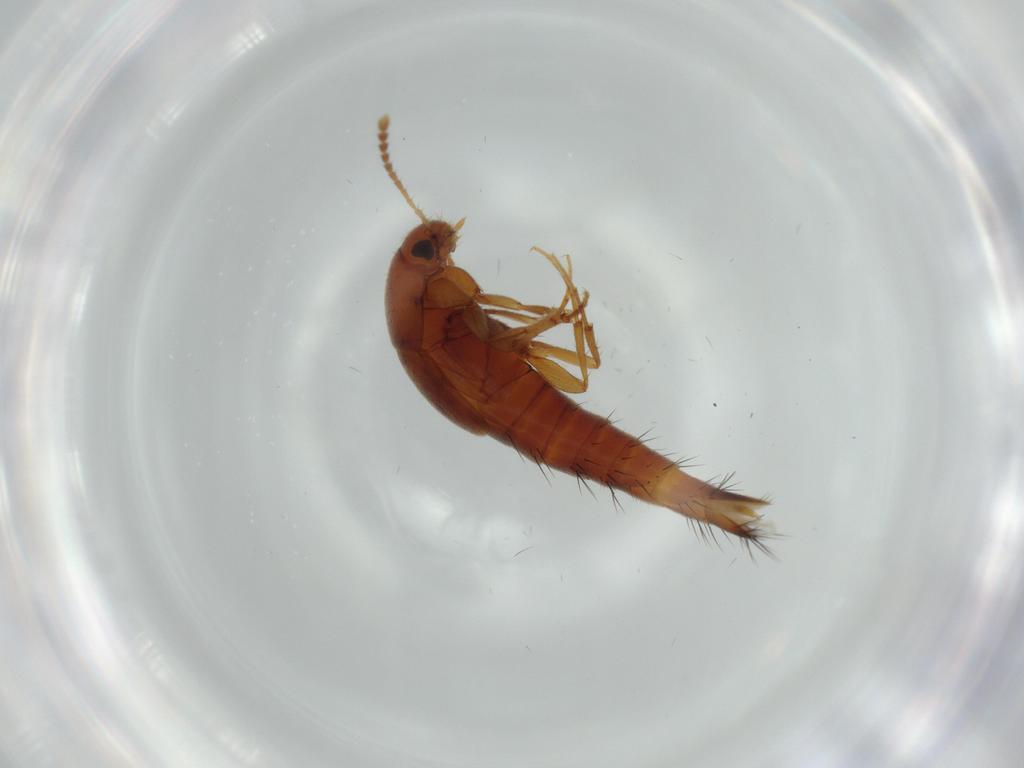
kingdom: Animalia
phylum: Arthropoda
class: Insecta
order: Coleoptera
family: Staphylinidae
